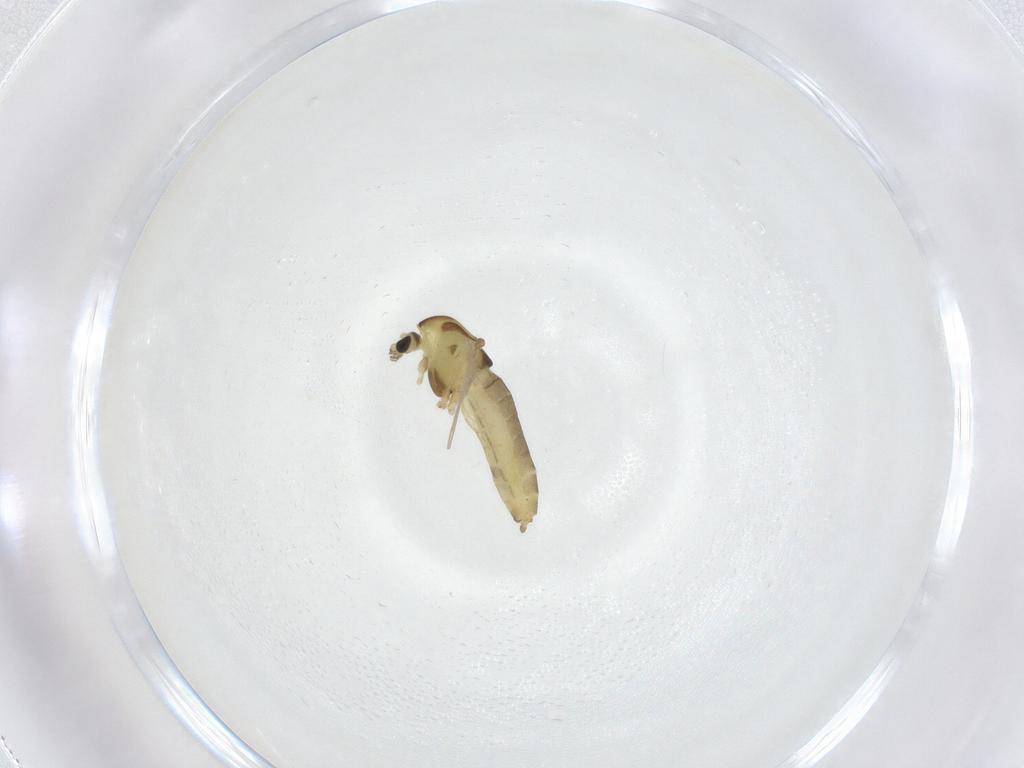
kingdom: Animalia
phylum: Arthropoda
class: Insecta
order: Diptera
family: Chironomidae
